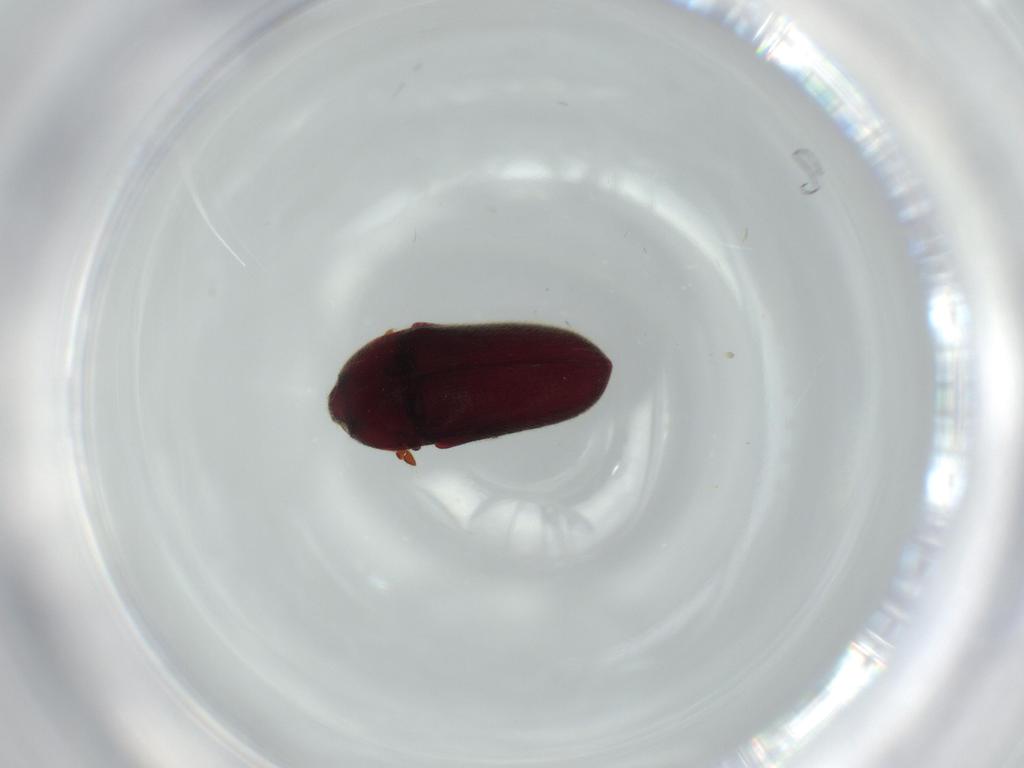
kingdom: Animalia
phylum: Arthropoda
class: Insecta
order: Coleoptera
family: Throscidae
